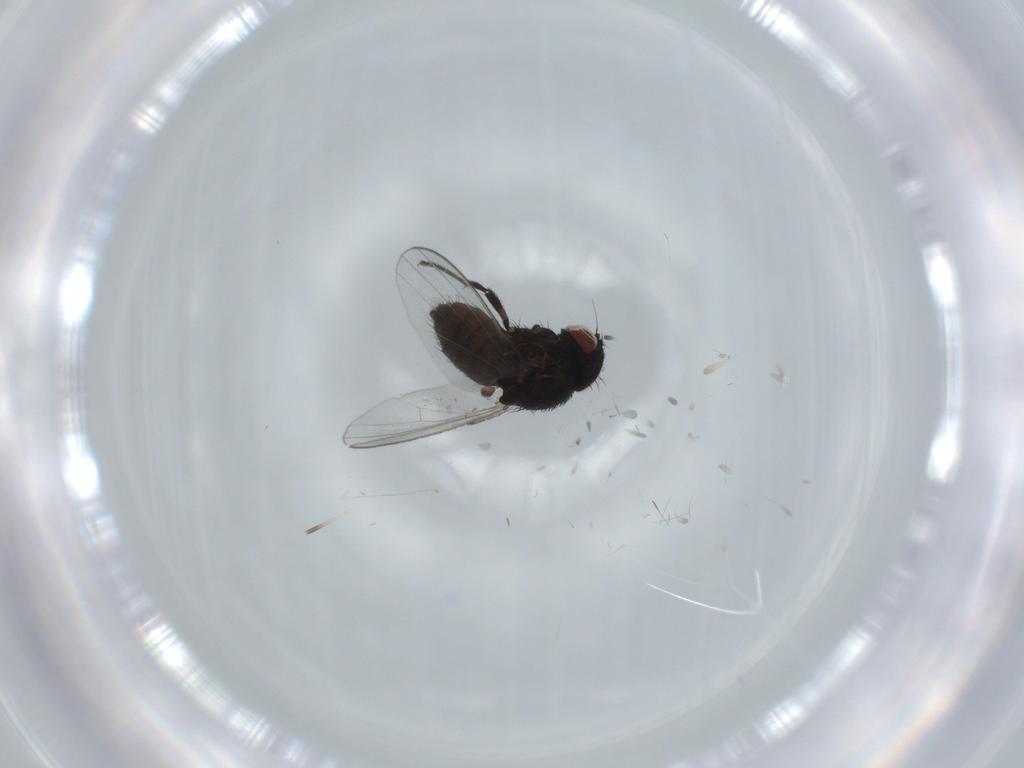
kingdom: Animalia
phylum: Arthropoda
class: Insecta
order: Diptera
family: Milichiidae
